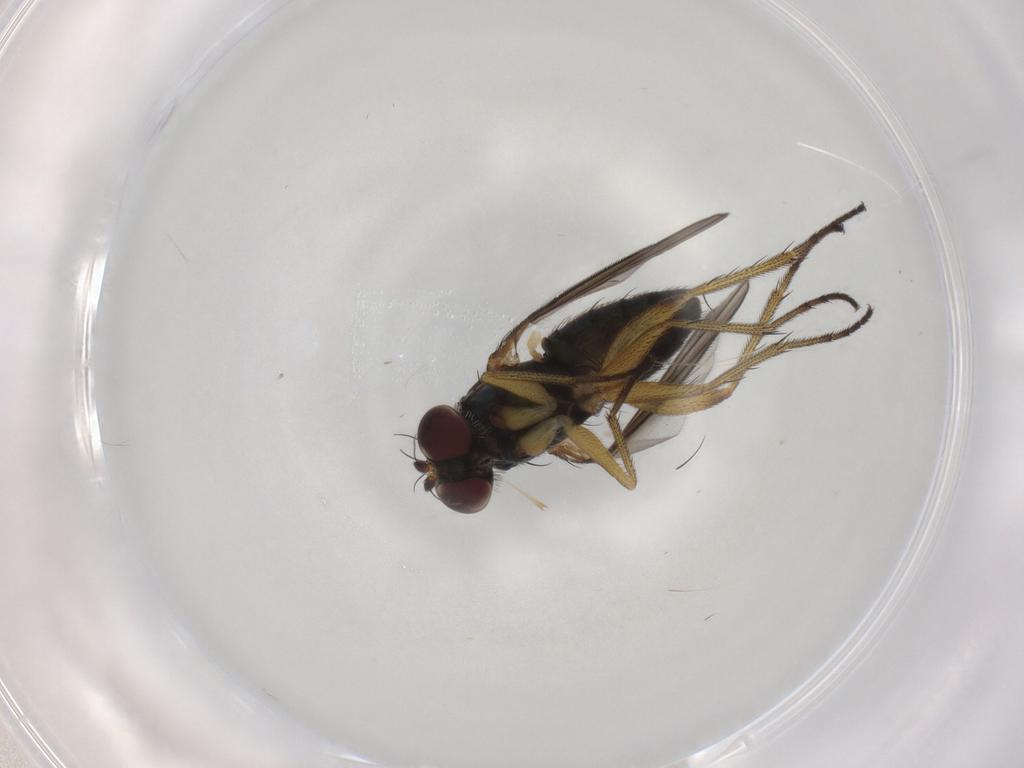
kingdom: Animalia
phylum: Arthropoda
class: Insecta
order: Diptera
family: Dolichopodidae
